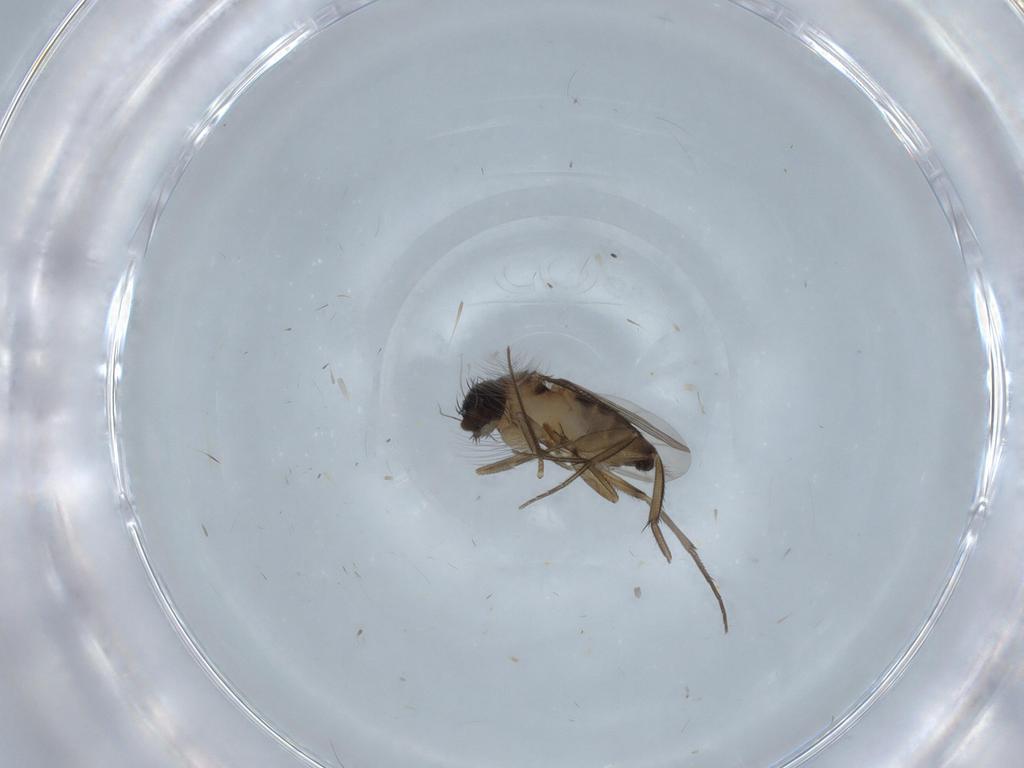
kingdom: Animalia
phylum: Arthropoda
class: Insecta
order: Diptera
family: Phoridae
